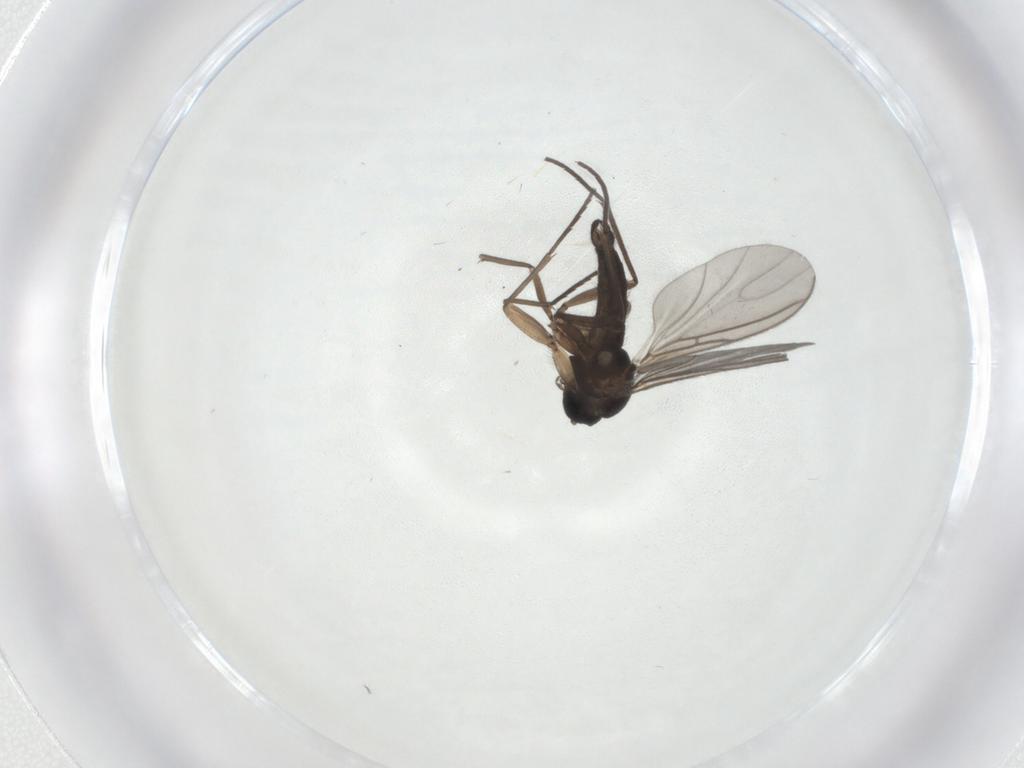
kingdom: Animalia
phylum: Arthropoda
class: Insecta
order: Diptera
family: Sciaridae
